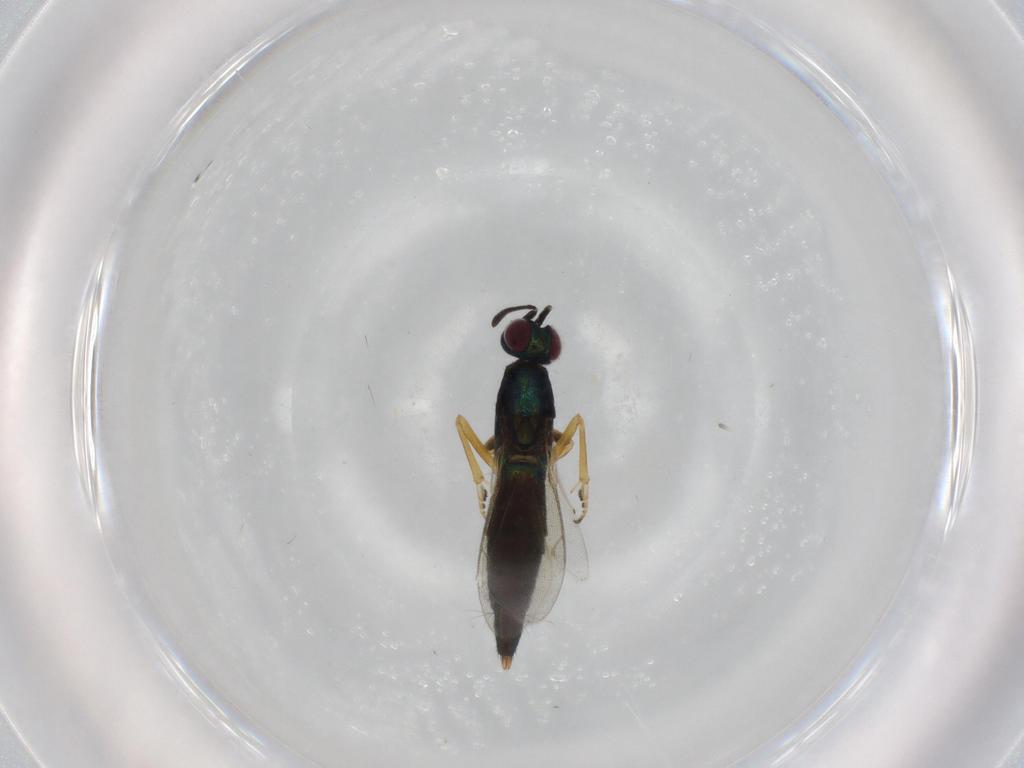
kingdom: Animalia
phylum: Arthropoda
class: Insecta
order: Hymenoptera
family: Eupelmidae
